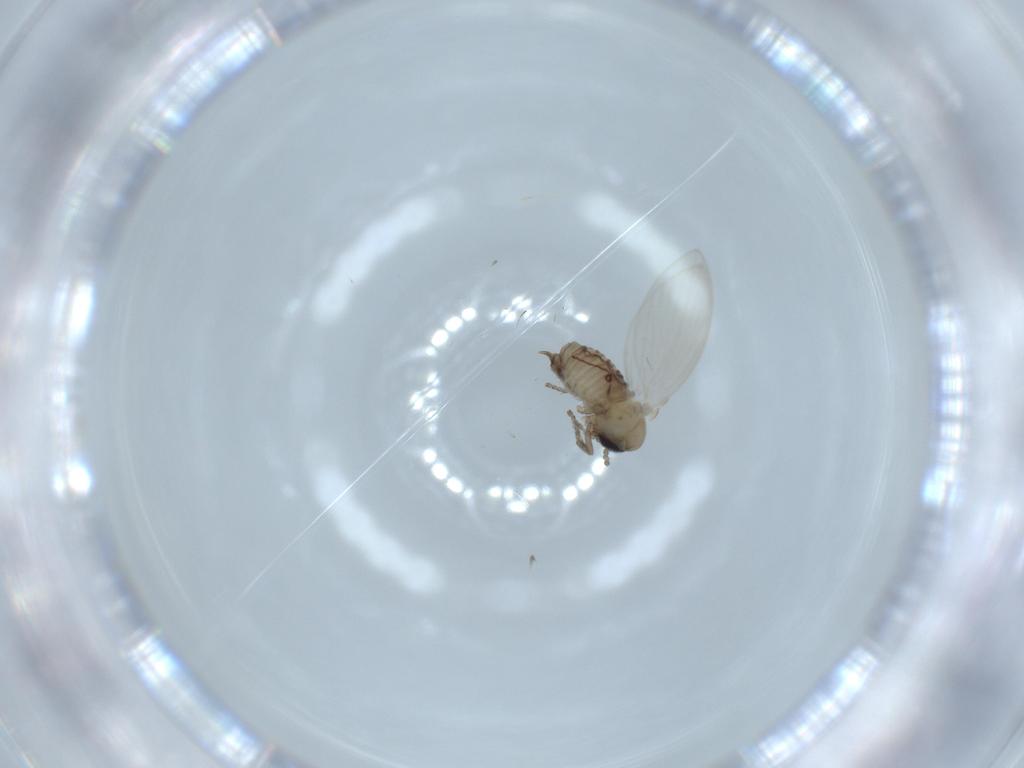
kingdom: Animalia
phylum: Arthropoda
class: Insecta
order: Diptera
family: Psychodidae
